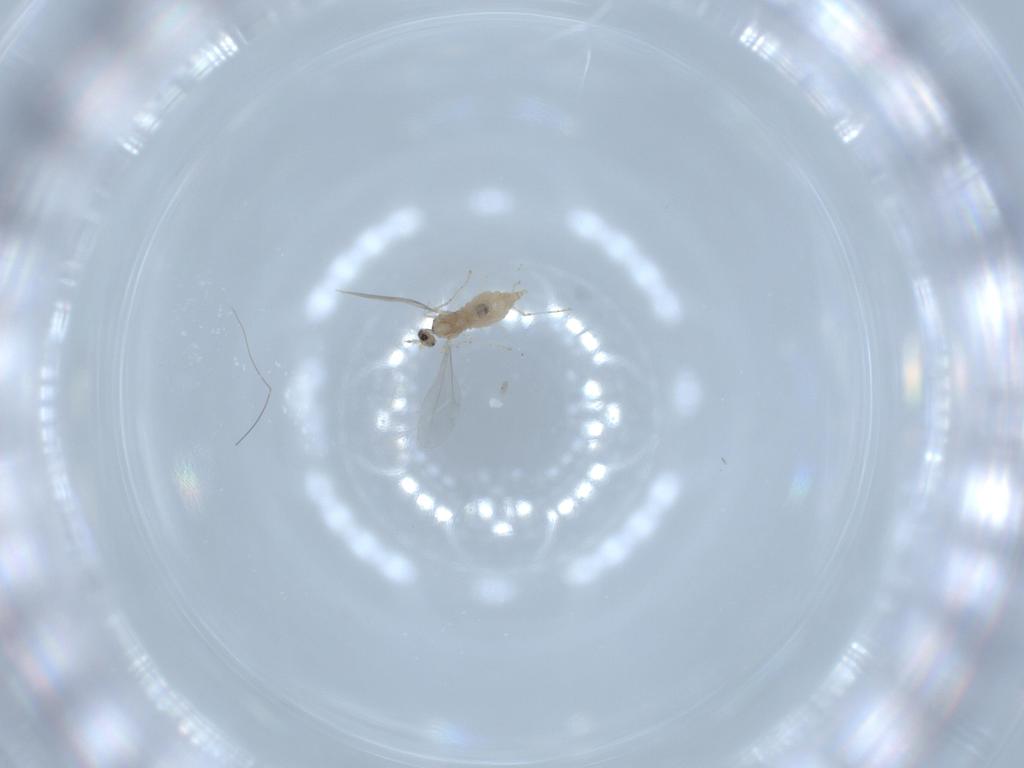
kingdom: Animalia
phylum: Arthropoda
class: Insecta
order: Diptera
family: Cecidomyiidae
